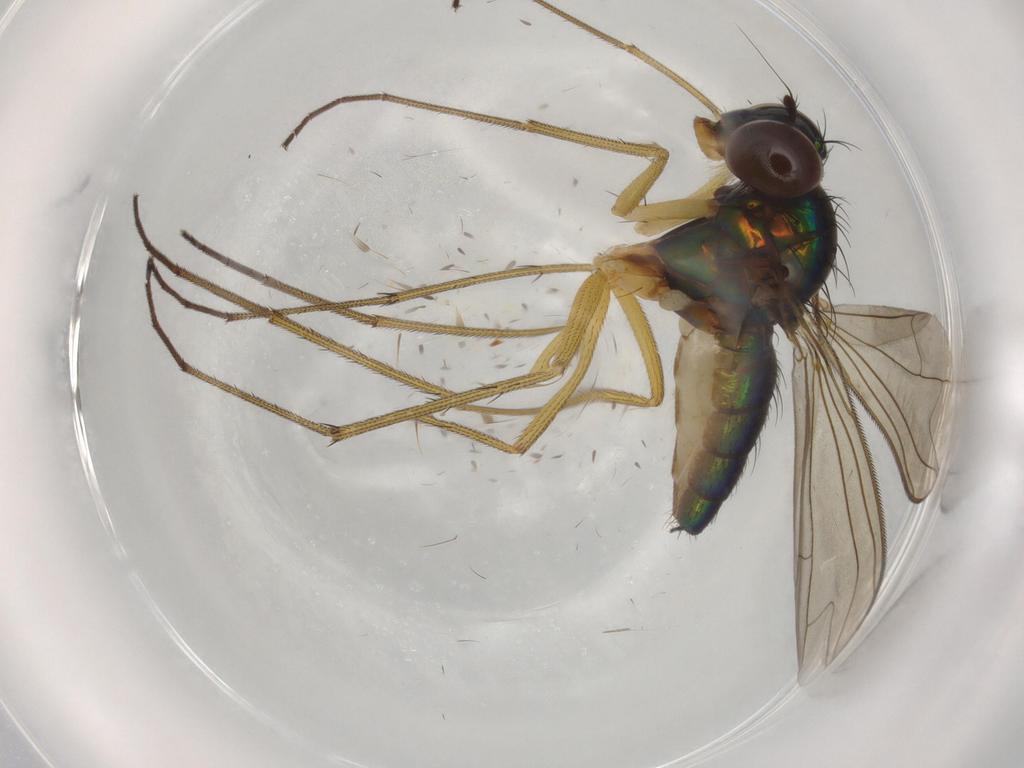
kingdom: Animalia
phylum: Arthropoda
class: Insecta
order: Diptera
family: Dolichopodidae
